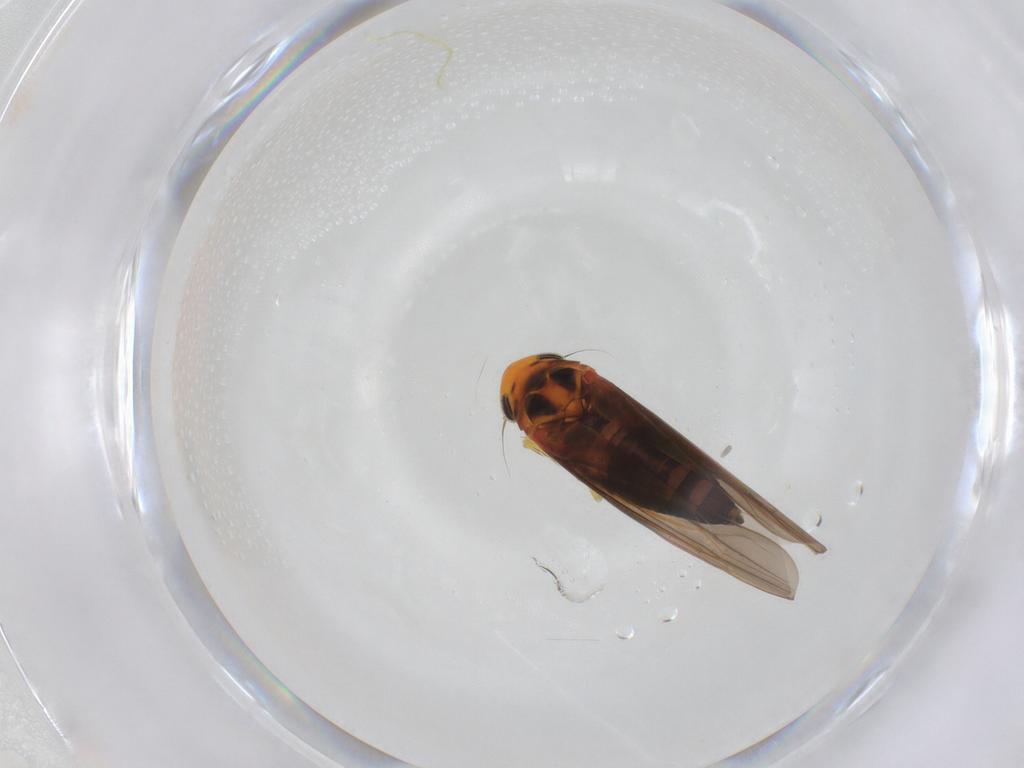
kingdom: Animalia
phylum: Arthropoda
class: Insecta
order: Hemiptera
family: Cicadellidae
